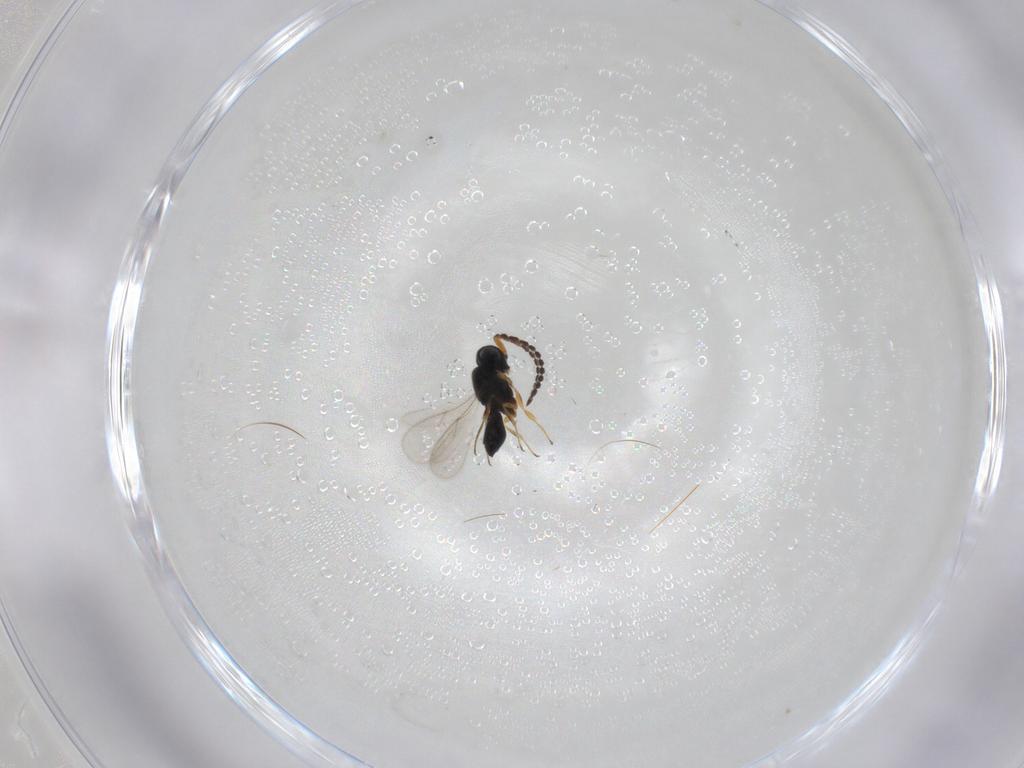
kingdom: Animalia
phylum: Arthropoda
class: Insecta
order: Hymenoptera
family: Scelionidae
